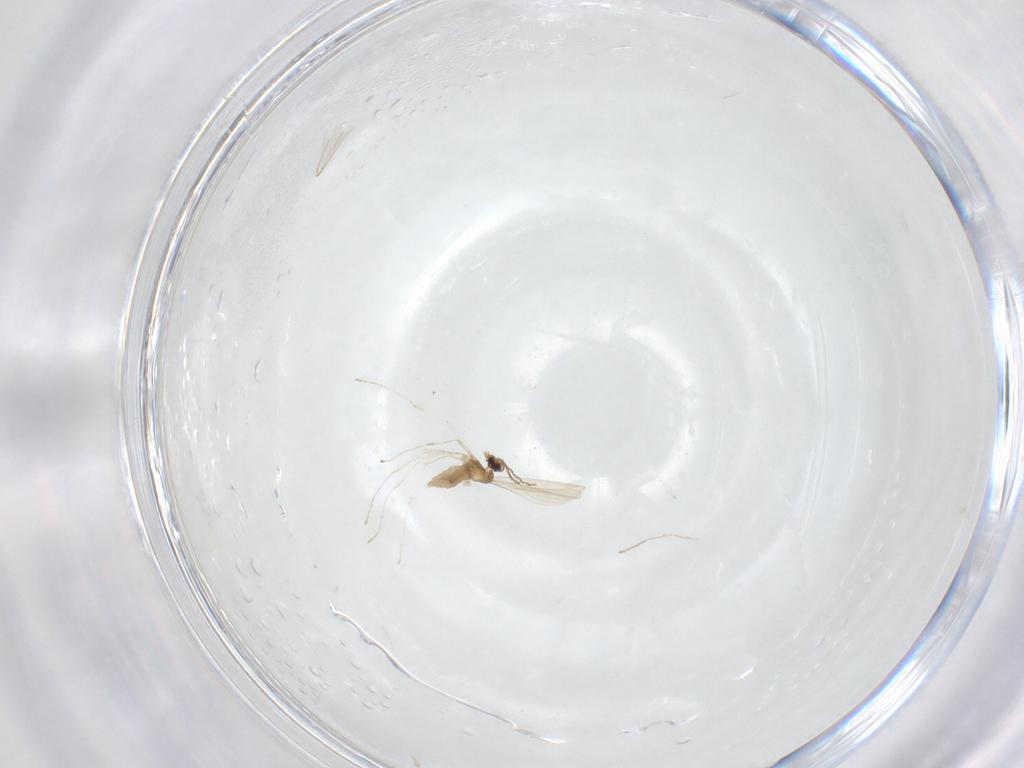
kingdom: Animalia
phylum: Arthropoda
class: Insecta
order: Diptera
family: Cecidomyiidae
